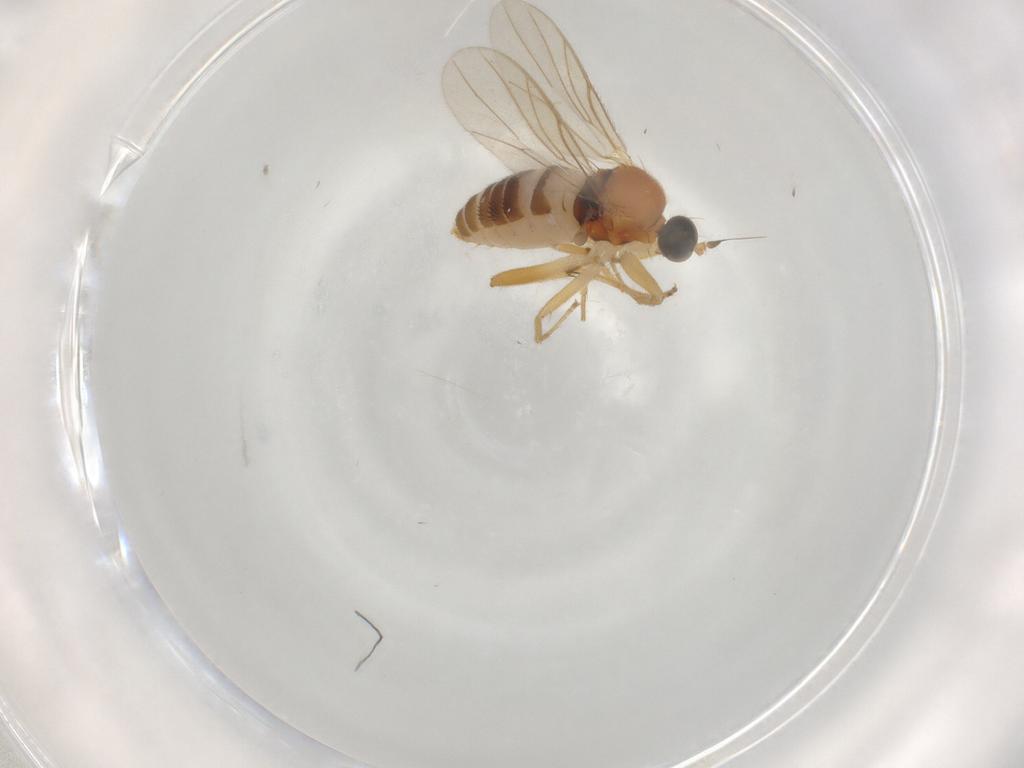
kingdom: Animalia
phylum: Arthropoda
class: Insecta
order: Diptera
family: Hybotidae
